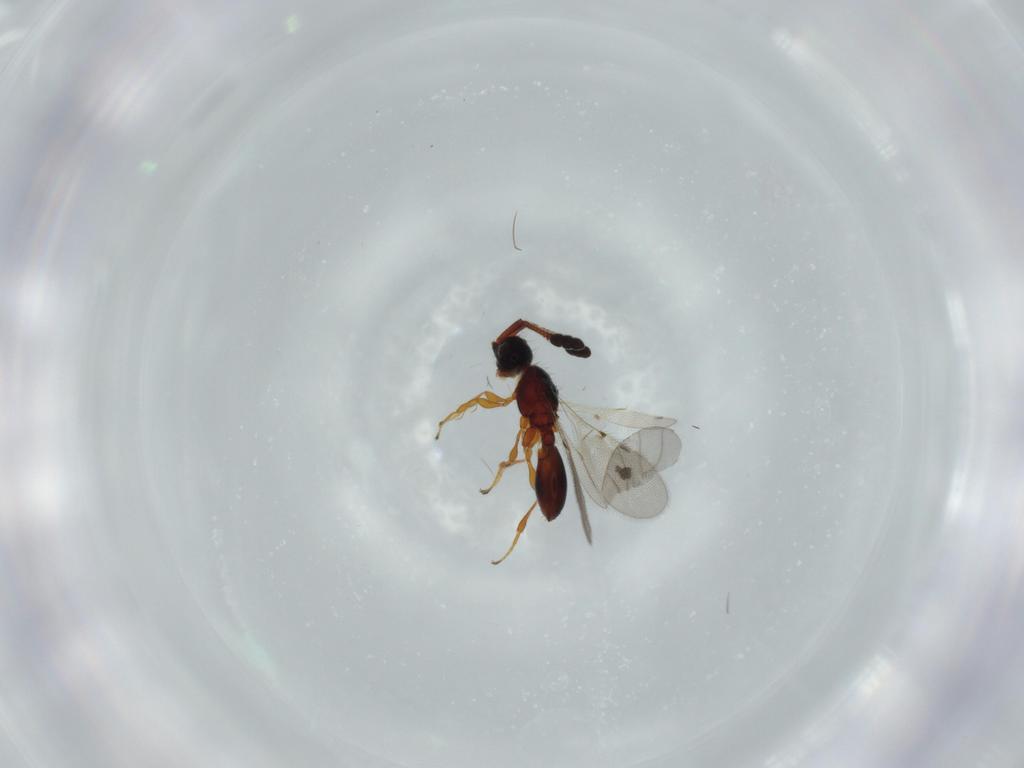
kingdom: Animalia
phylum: Arthropoda
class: Insecta
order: Hymenoptera
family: Diapriidae
